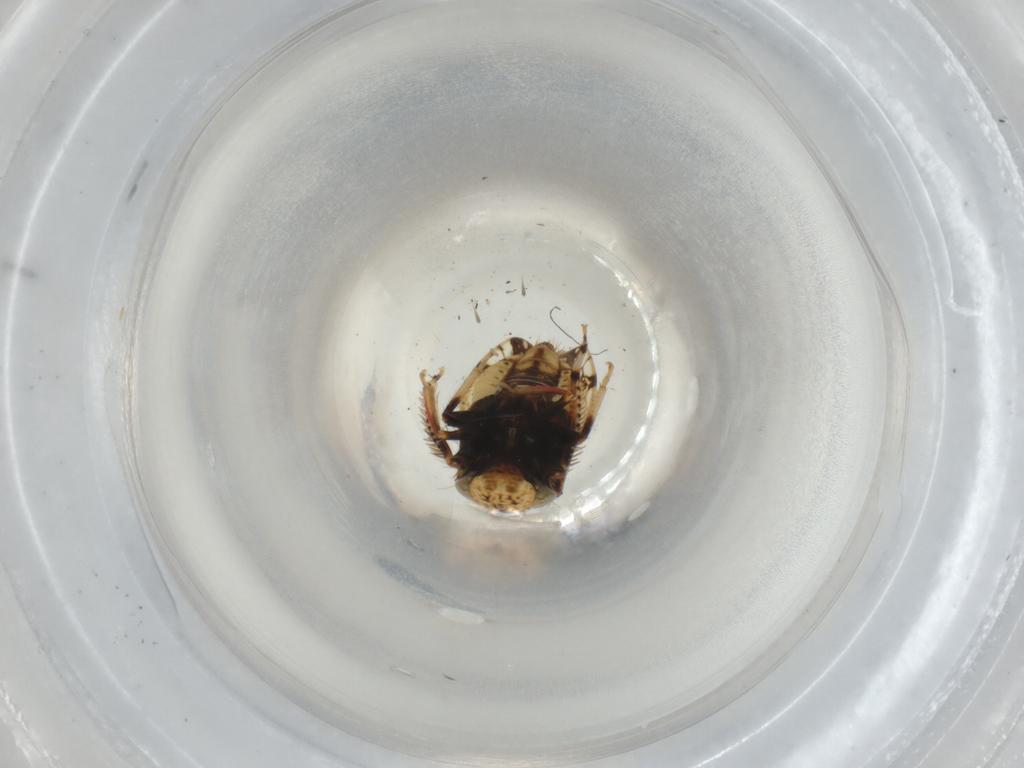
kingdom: Animalia
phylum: Arthropoda
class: Insecta
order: Hemiptera
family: Cicadellidae
